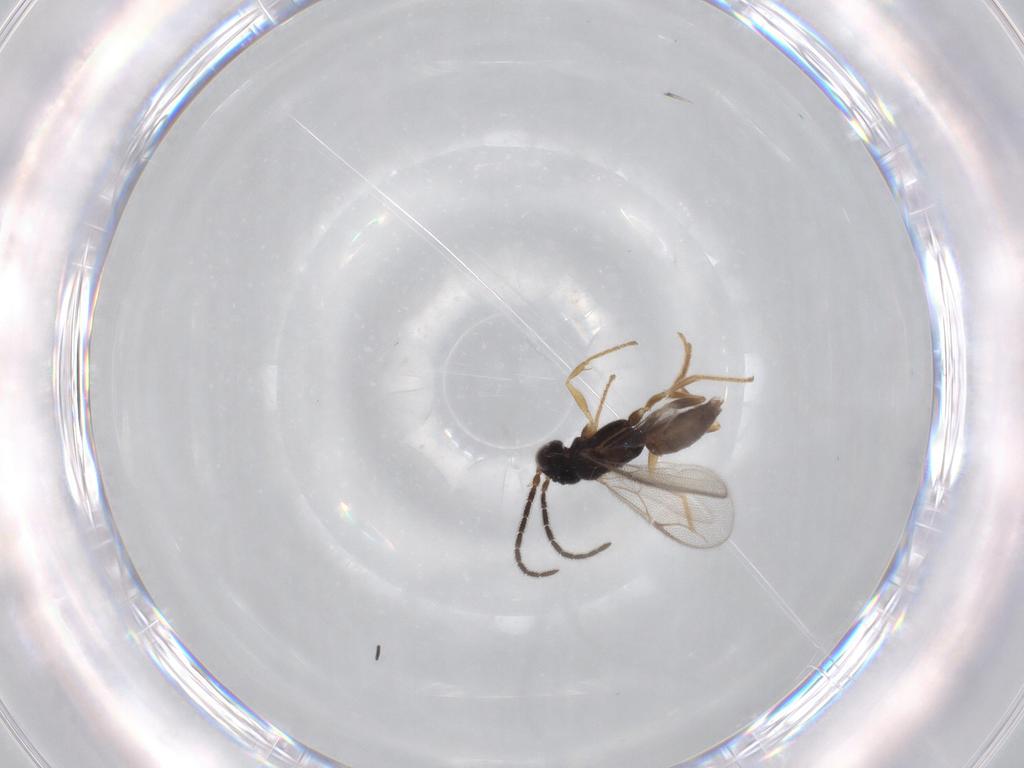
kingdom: Animalia
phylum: Arthropoda
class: Insecta
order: Hymenoptera
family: Dryinidae
